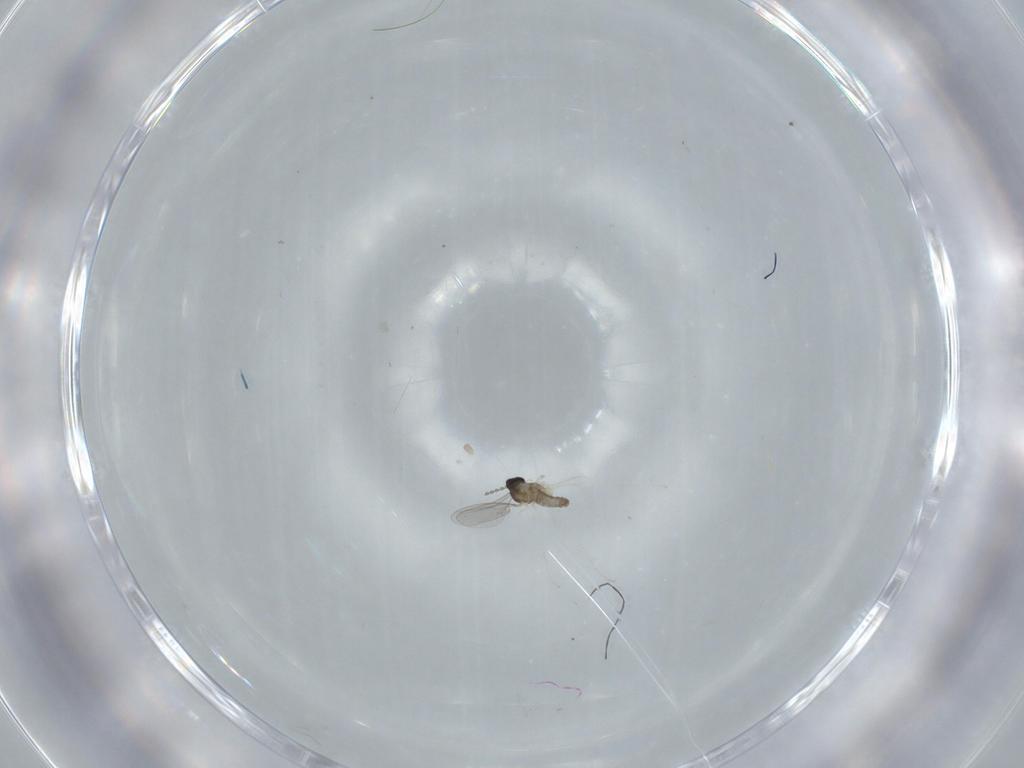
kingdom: Animalia
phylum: Arthropoda
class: Insecta
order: Diptera
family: Cecidomyiidae
